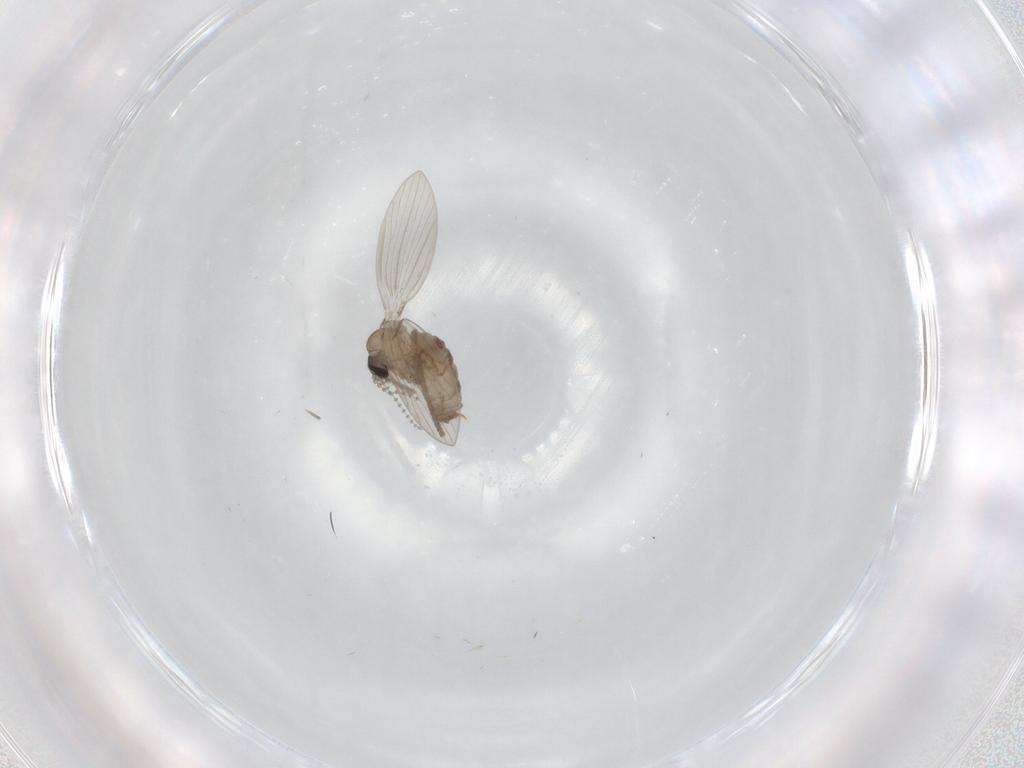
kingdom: Animalia
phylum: Arthropoda
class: Insecta
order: Diptera
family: Psychodidae
